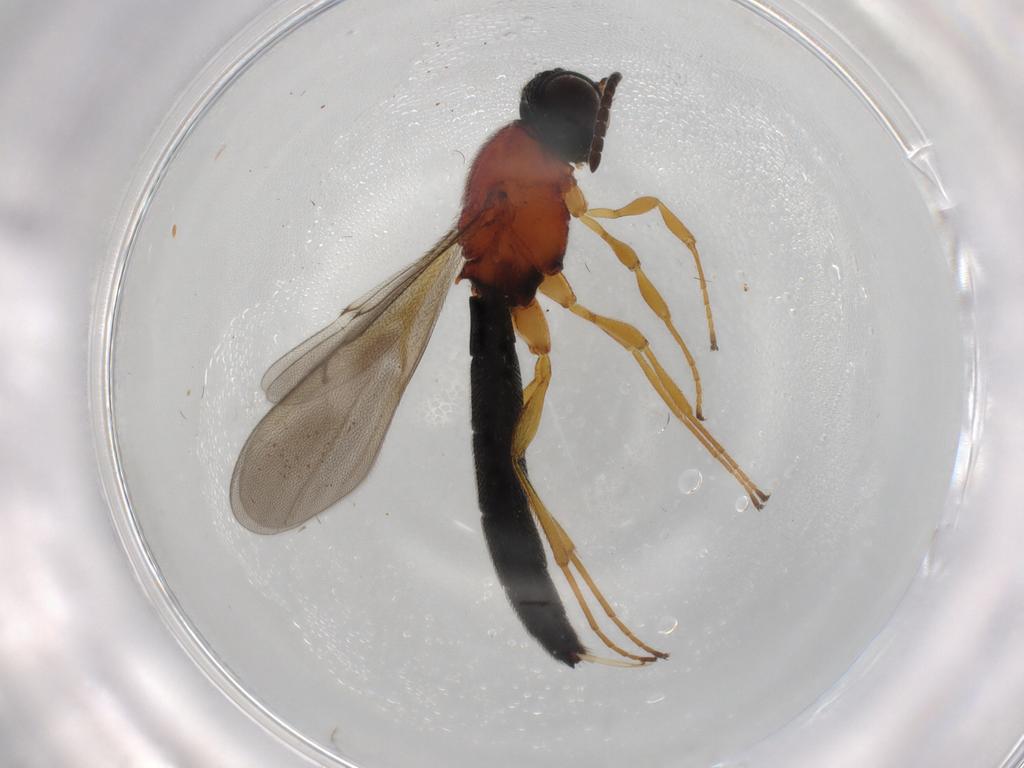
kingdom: Animalia
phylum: Arthropoda
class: Insecta
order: Hymenoptera
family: Scelionidae
